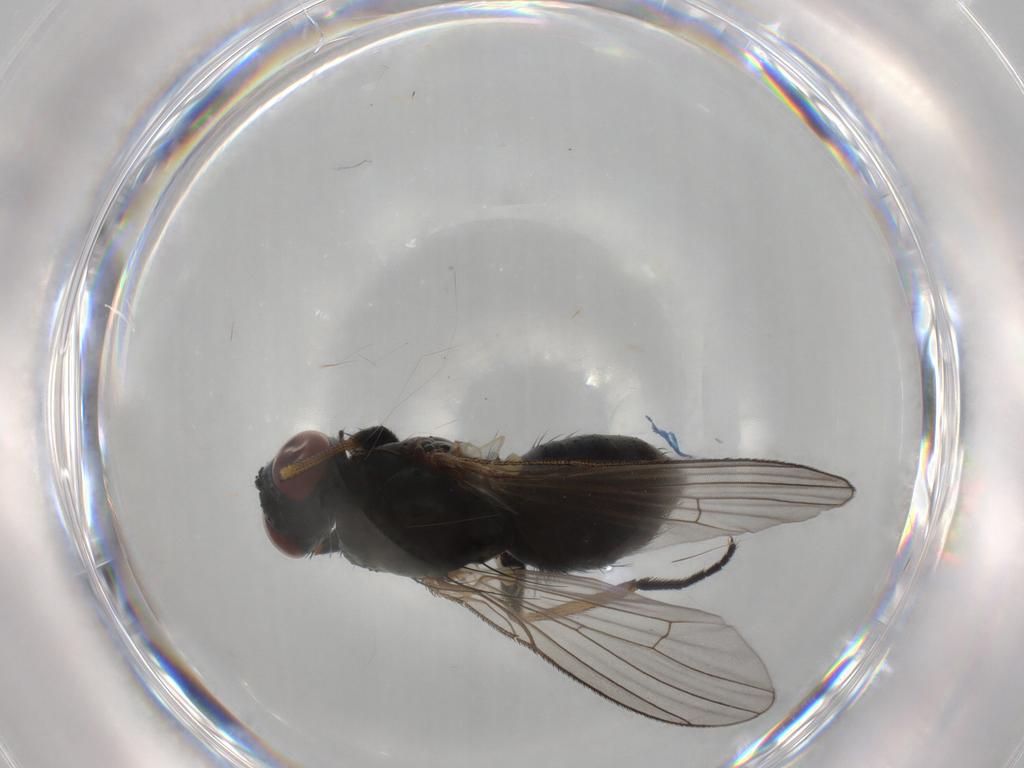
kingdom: Animalia
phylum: Arthropoda
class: Insecta
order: Diptera
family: Muscidae
